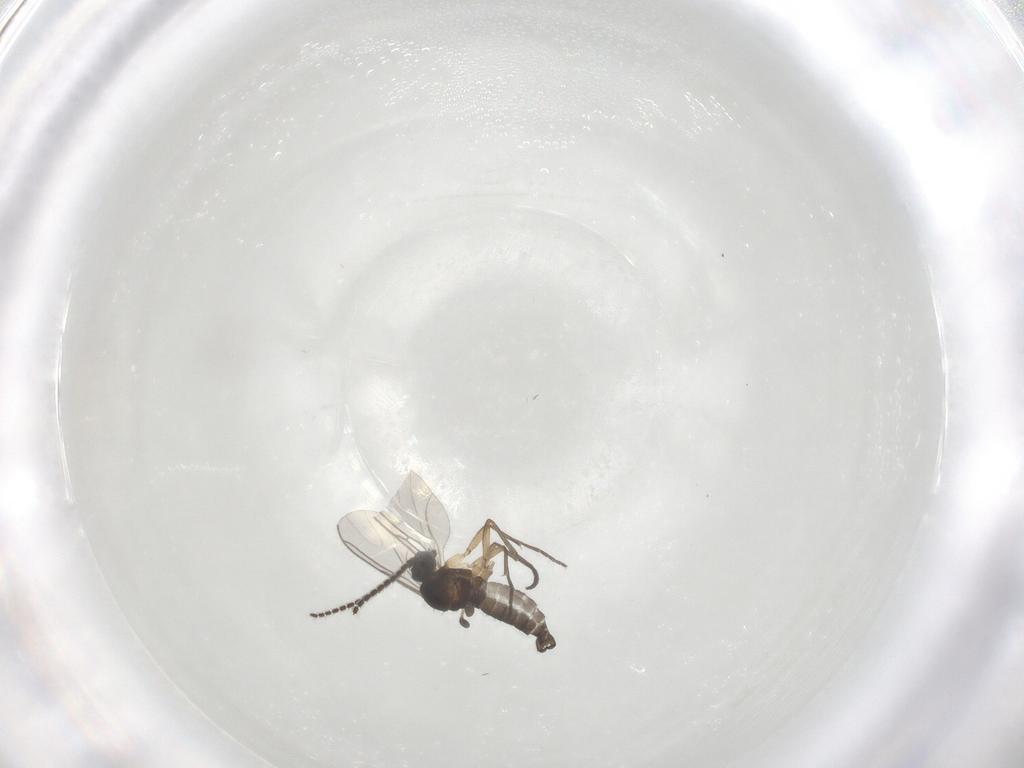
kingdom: Animalia
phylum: Arthropoda
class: Insecta
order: Diptera
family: Sciaridae
